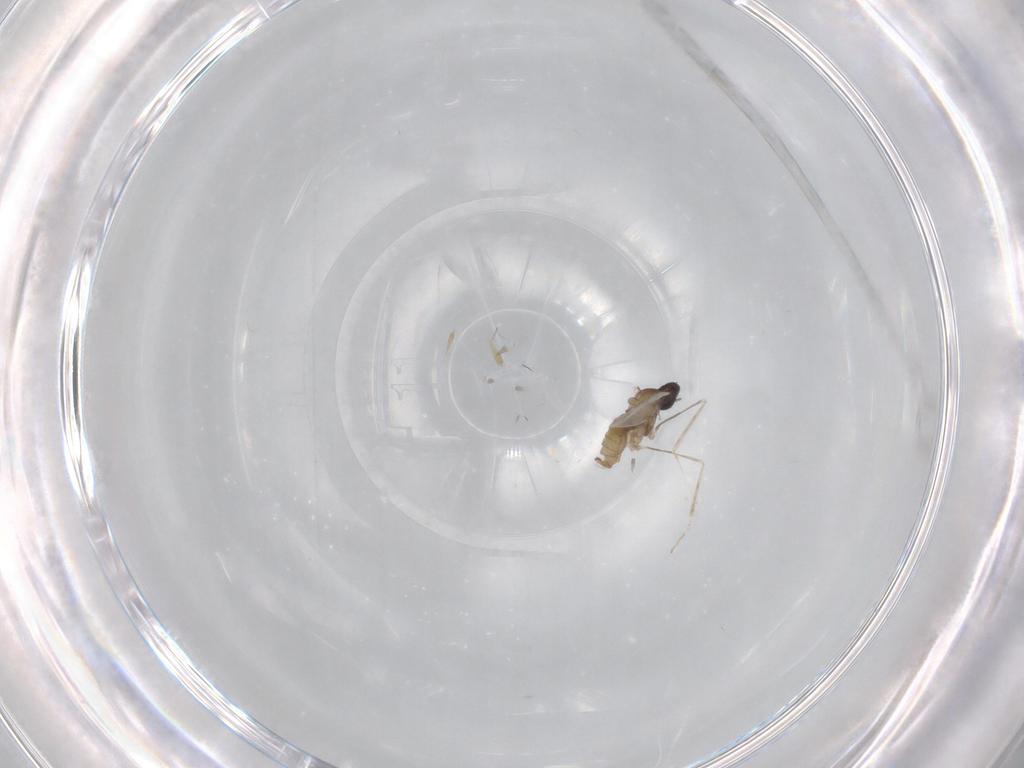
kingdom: Animalia
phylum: Arthropoda
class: Insecta
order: Diptera
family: Cecidomyiidae
